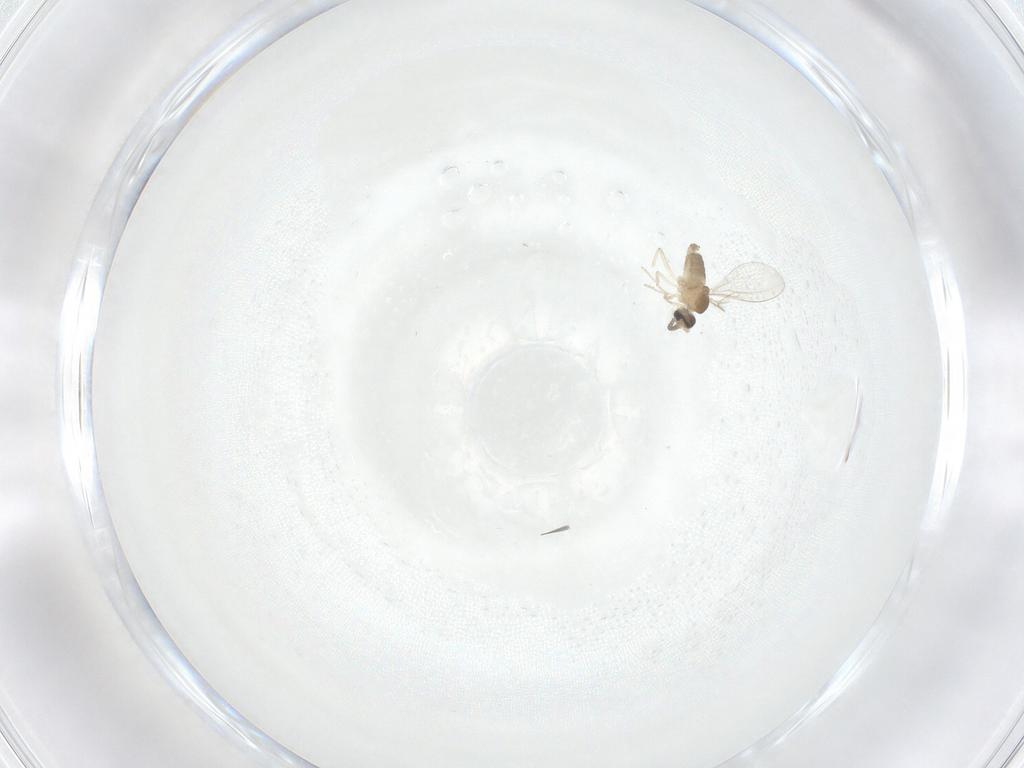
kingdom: Animalia
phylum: Arthropoda
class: Insecta
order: Diptera
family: Cecidomyiidae
